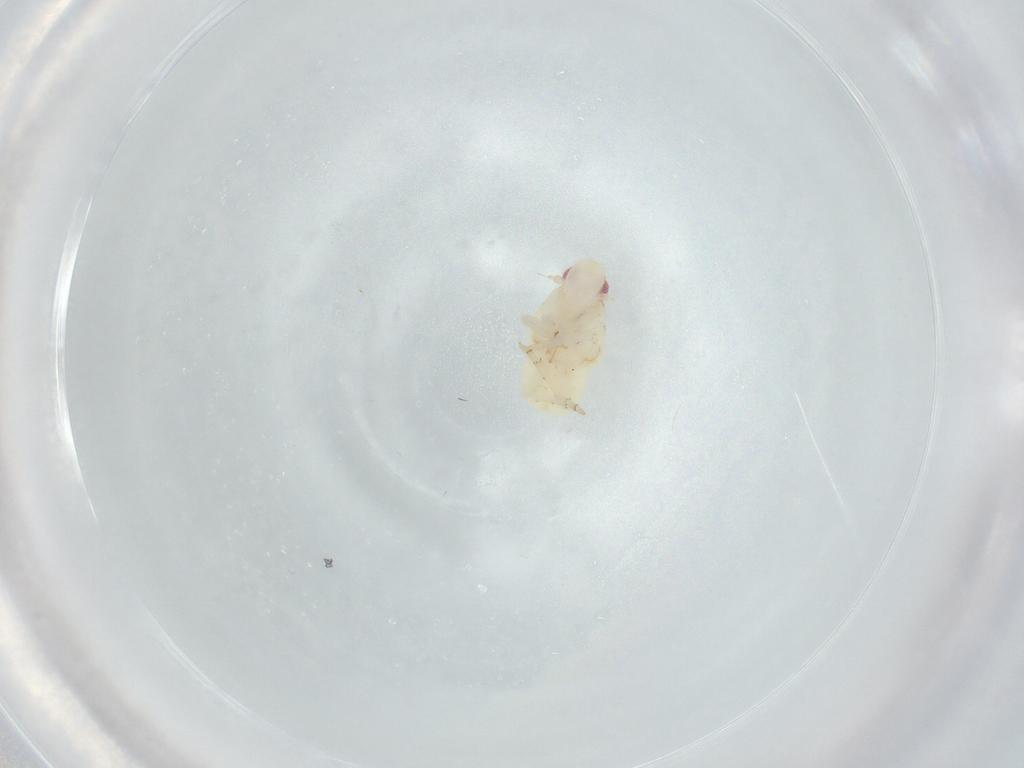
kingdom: Animalia
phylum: Arthropoda
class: Insecta
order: Hemiptera
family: Flatidae
